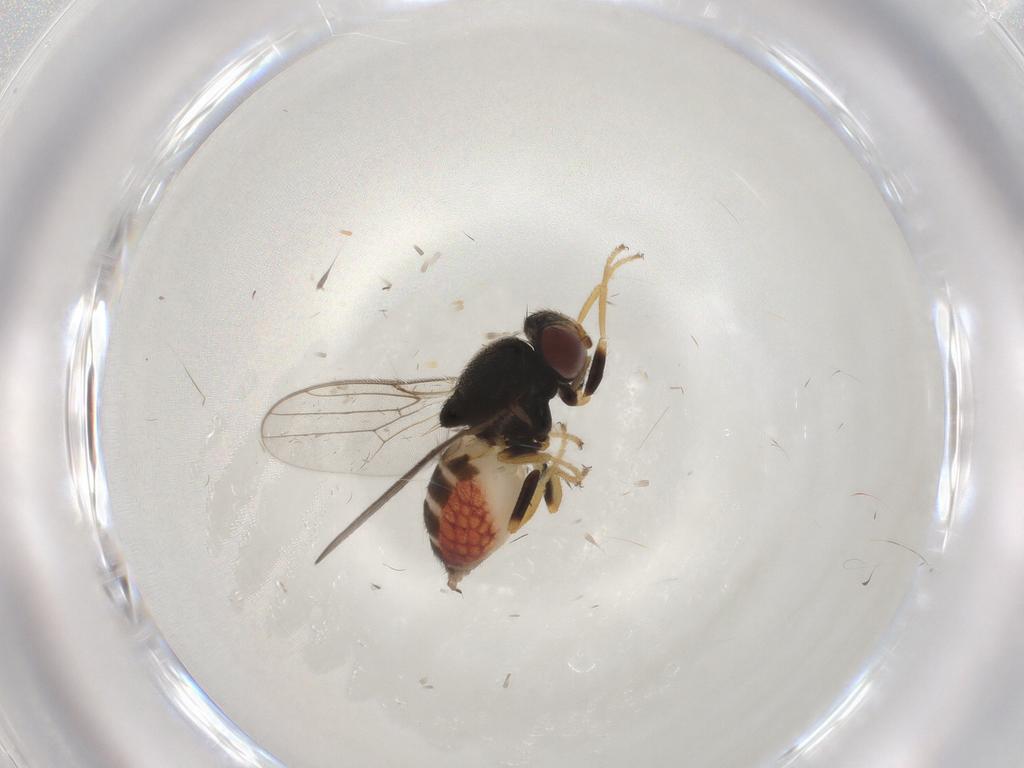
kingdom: Animalia
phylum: Arthropoda
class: Insecta
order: Diptera
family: Chloropidae
